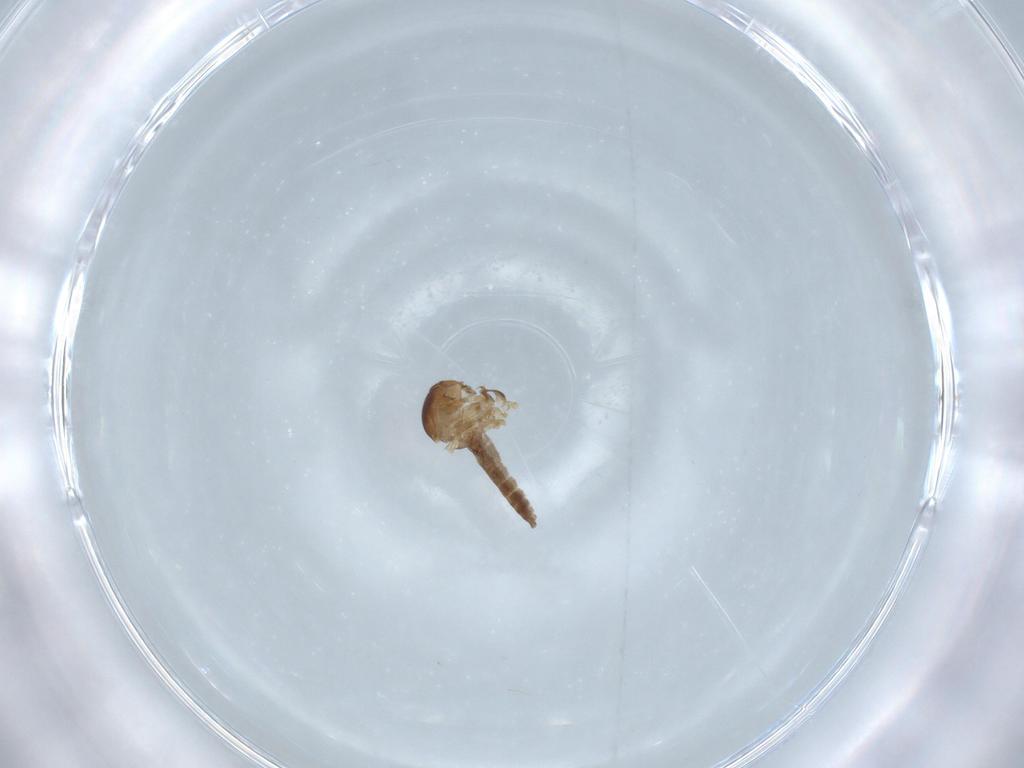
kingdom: Animalia
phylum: Arthropoda
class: Insecta
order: Diptera
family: Ceratopogonidae
